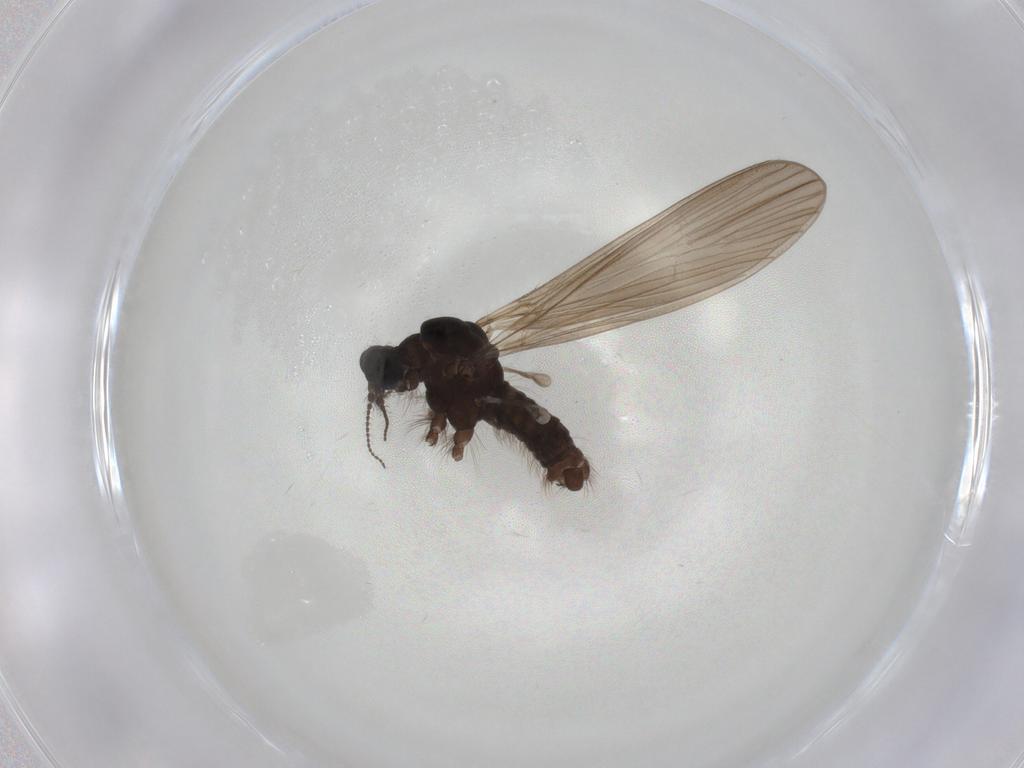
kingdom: Animalia
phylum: Arthropoda
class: Insecta
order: Diptera
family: Limoniidae
